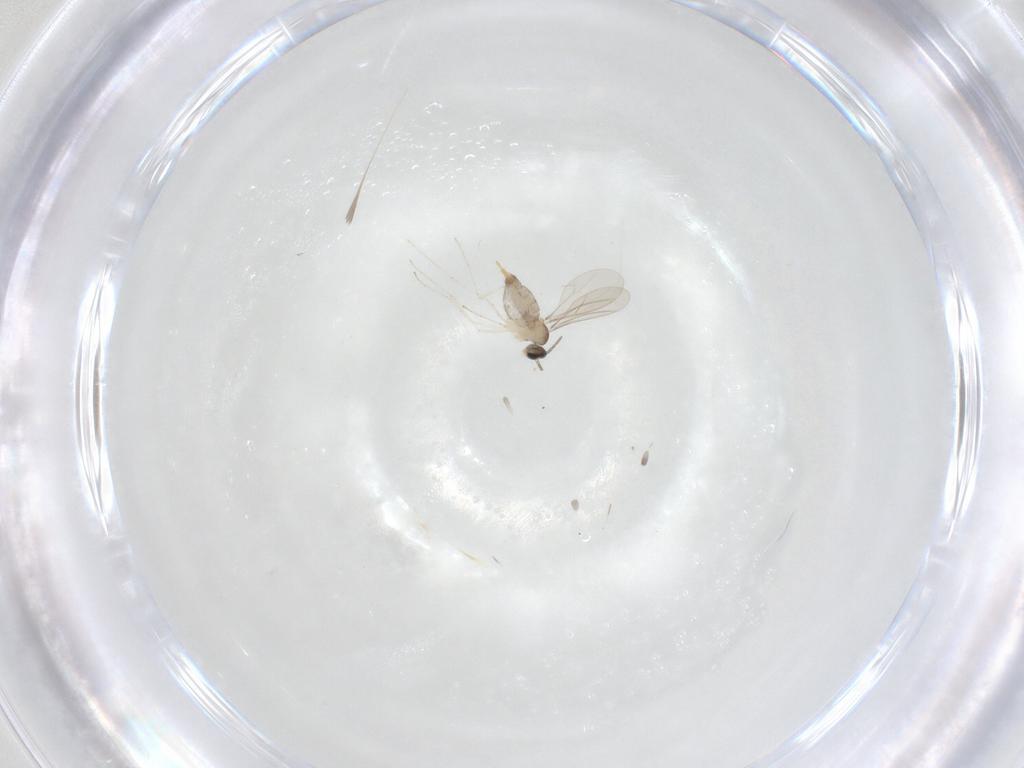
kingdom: Animalia
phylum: Arthropoda
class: Insecta
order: Diptera
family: Cecidomyiidae
